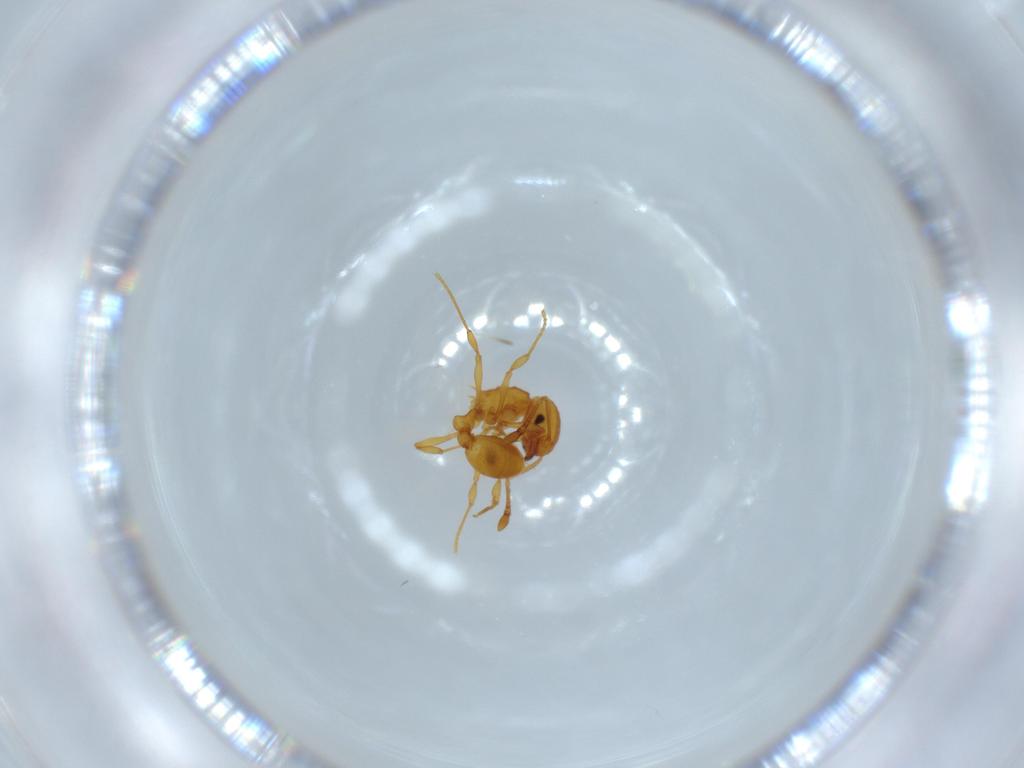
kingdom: Animalia
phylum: Arthropoda
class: Insecta
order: Hymenoptera
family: Formicidae
